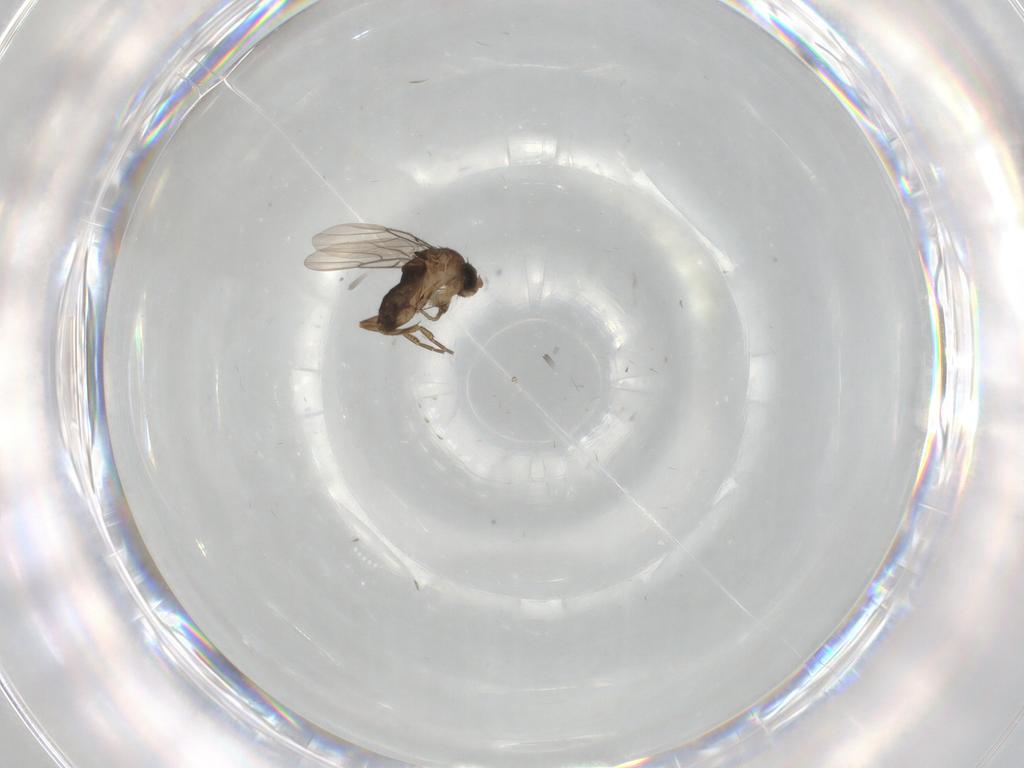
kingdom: Animalia
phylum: Arthropoda
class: Insecta
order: Diptera
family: Phoridae
